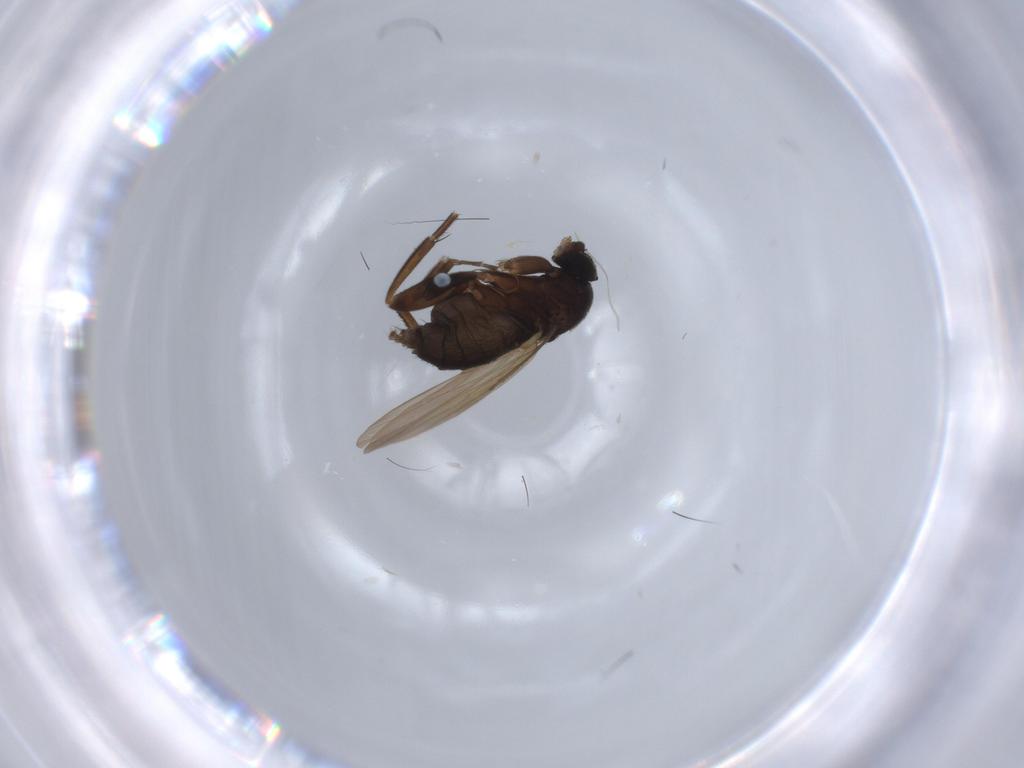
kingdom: Animalia
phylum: Arthropoda
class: Insecta
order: Diptera
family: Phoridae
